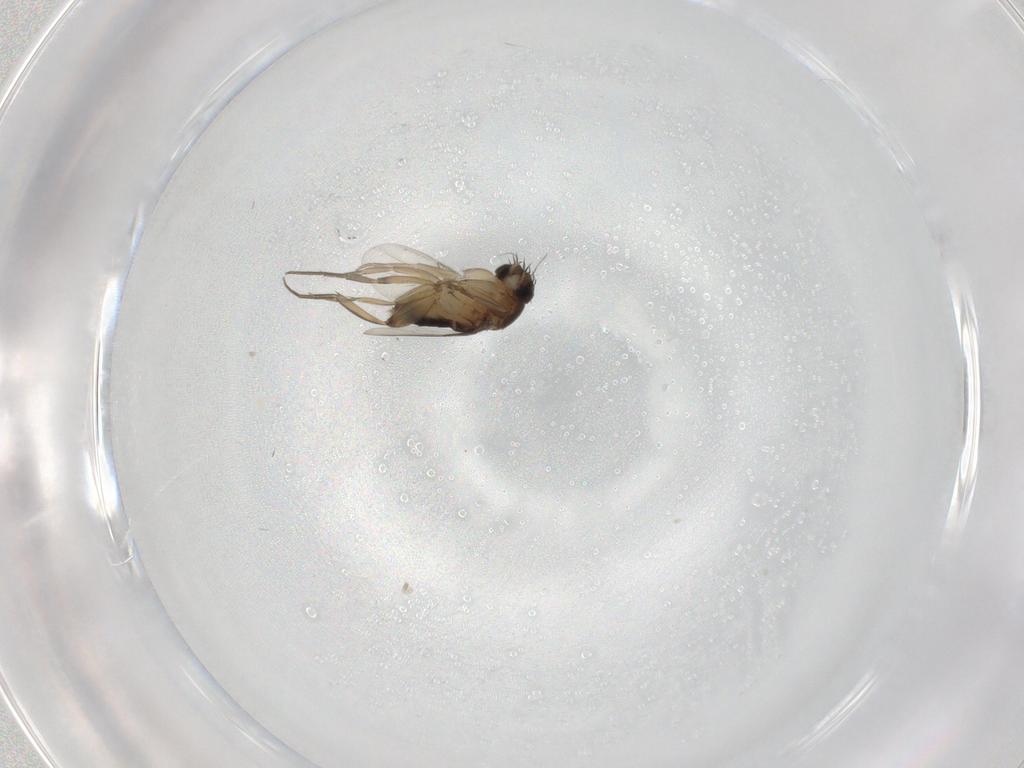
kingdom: Animalia
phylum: Arthropoda
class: Insecta
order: Diptera
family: Phoridae
